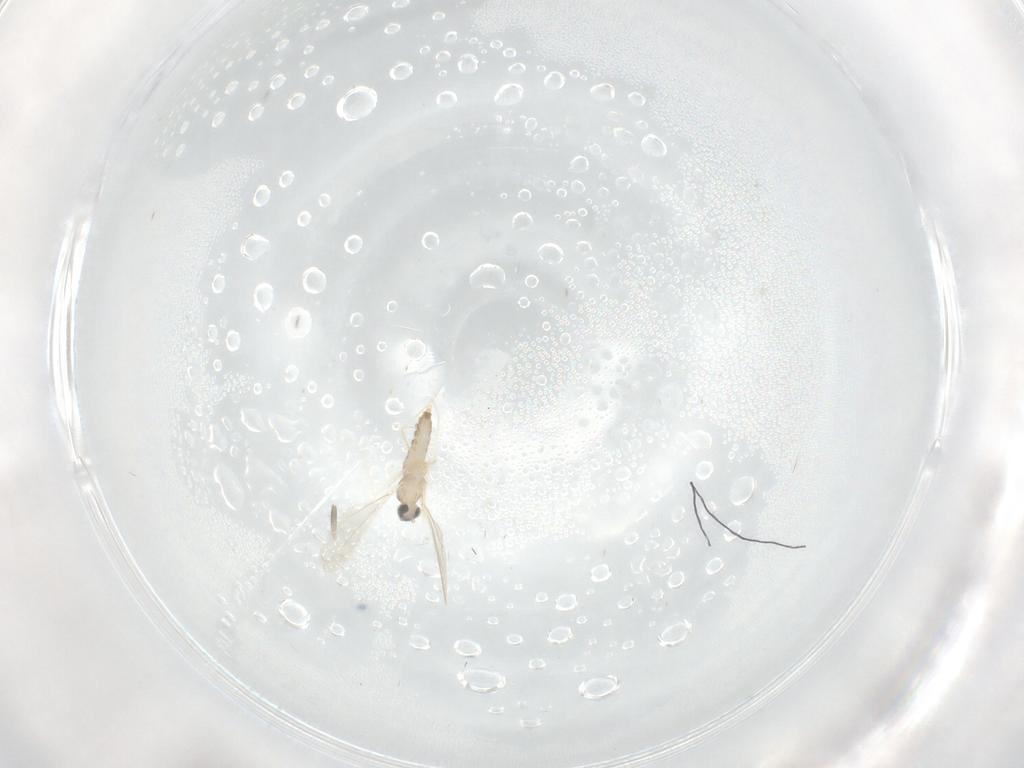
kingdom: Animalia
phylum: Arthropoda
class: Insecta
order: Diptera
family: Cecidomyiidae
